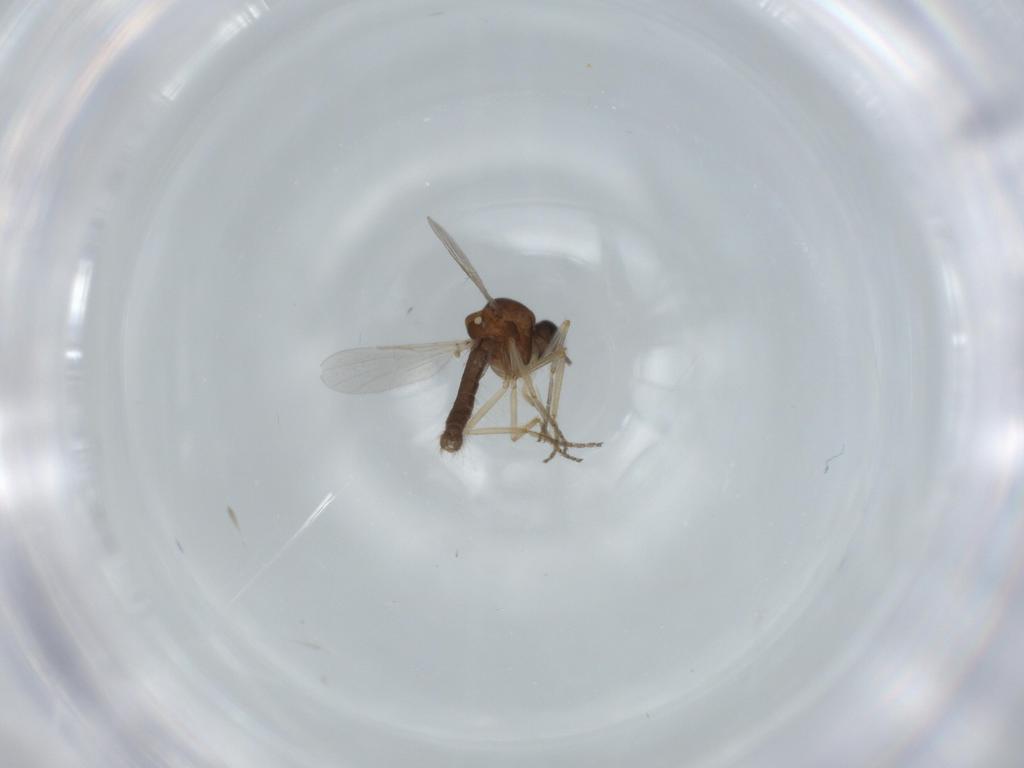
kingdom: Animalia
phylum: Arthropoda
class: Insecta
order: Diptera
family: Ceratopogonidae
